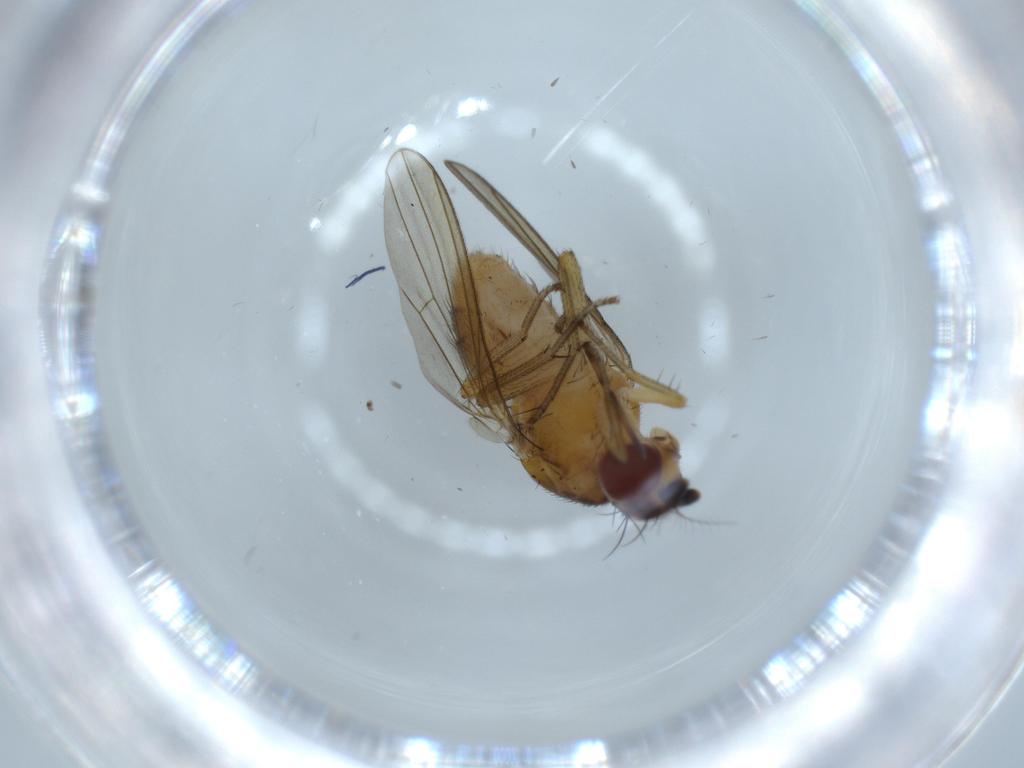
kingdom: Animalia
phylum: Arthropoda
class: Insecta
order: Diptera
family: Lauxaniidae
